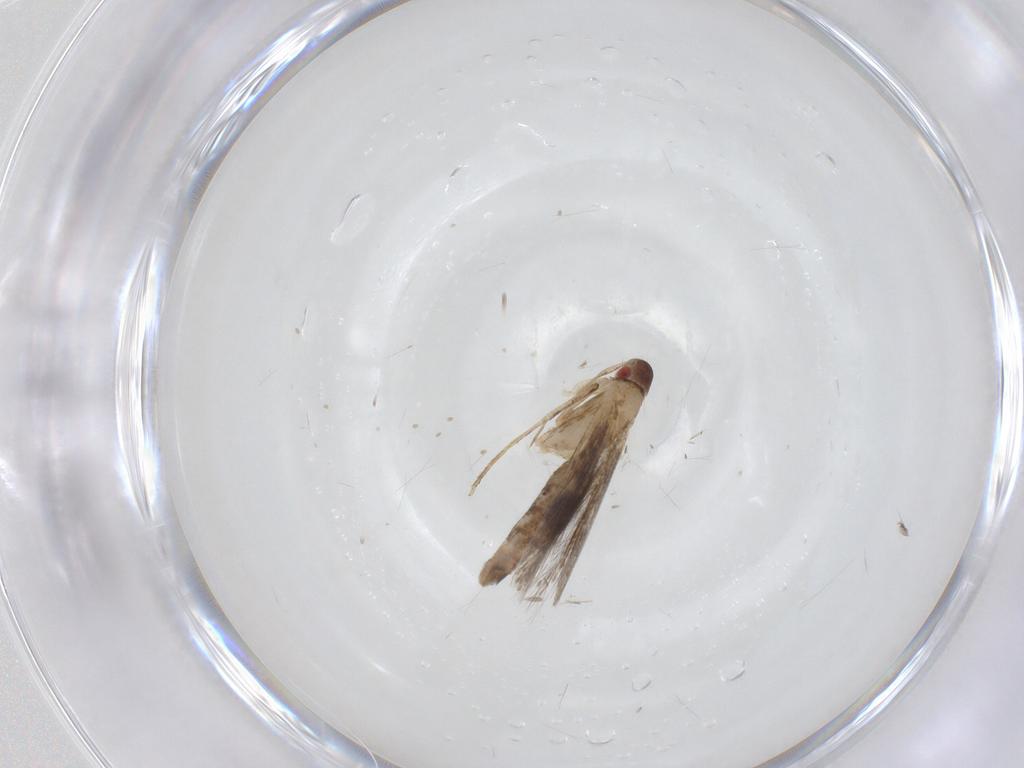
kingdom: Animalia
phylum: Arthropoda
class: Insecta
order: Lepidoptera
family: Cosmopterigidae
